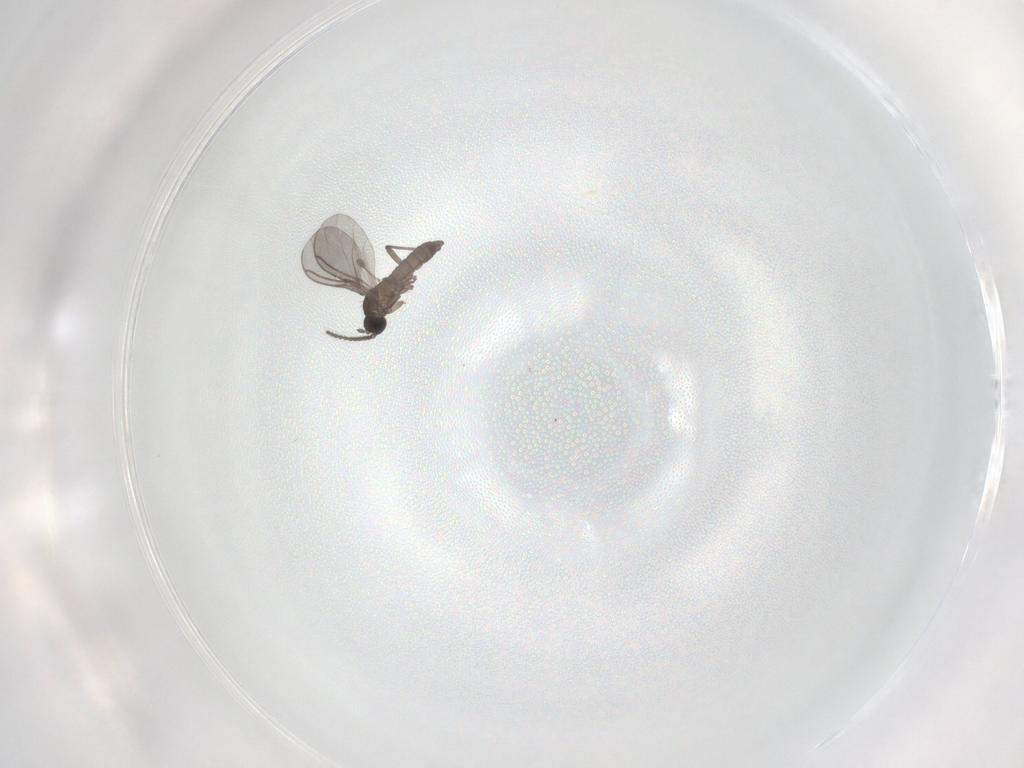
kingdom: Animalia
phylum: Arthropoda
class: Insecta
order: Diptera
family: Sciaridae
